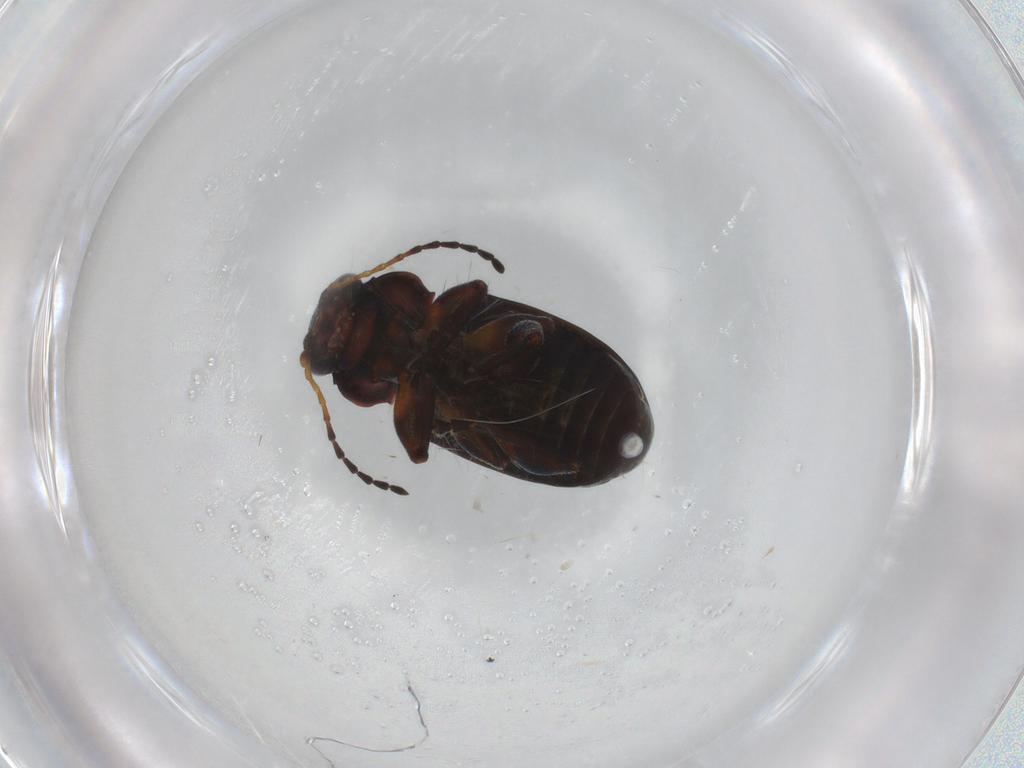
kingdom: Animalia
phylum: Arthropoda
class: Insecta
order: Coleoptera
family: Chrysomelidae
